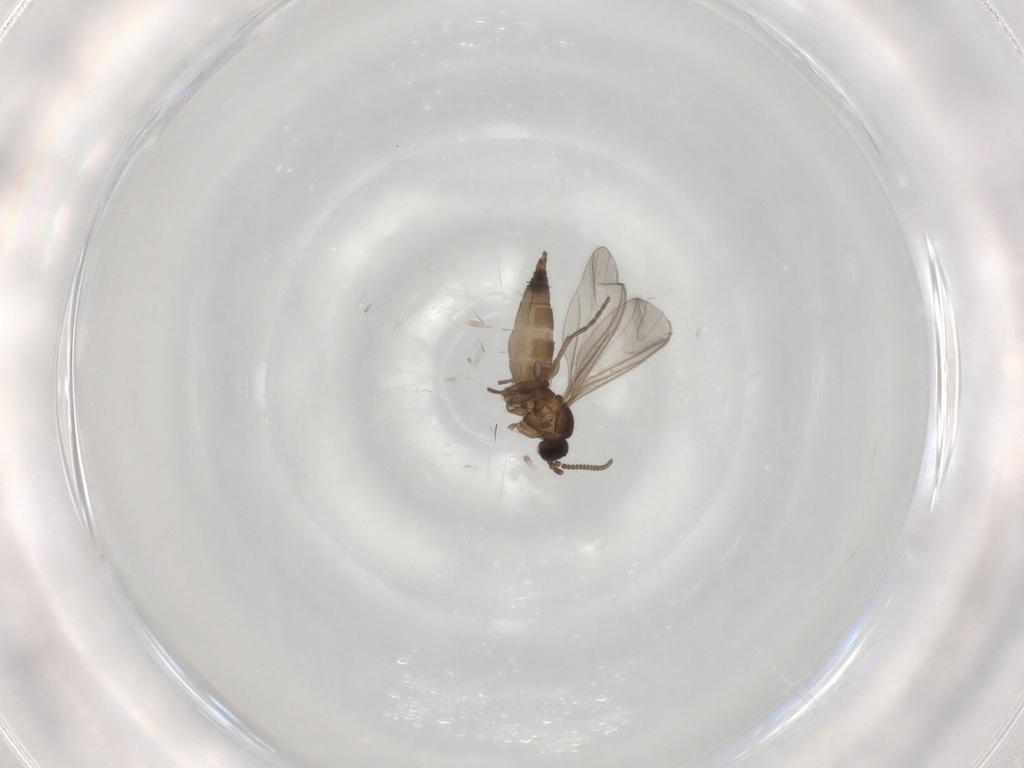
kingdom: Animalia
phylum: Arthropoda
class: Insecta
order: Diptera
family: Sciaridae
